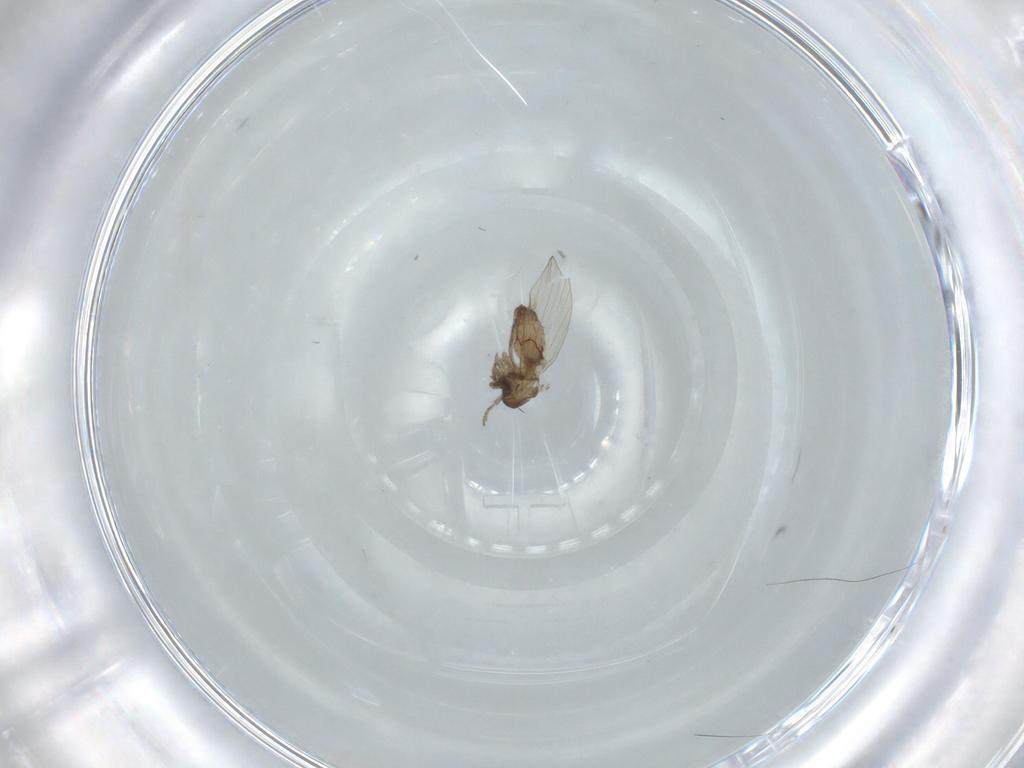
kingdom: Animalia
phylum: Arthropoda
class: Insecta
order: Diptera
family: Psychodidae
